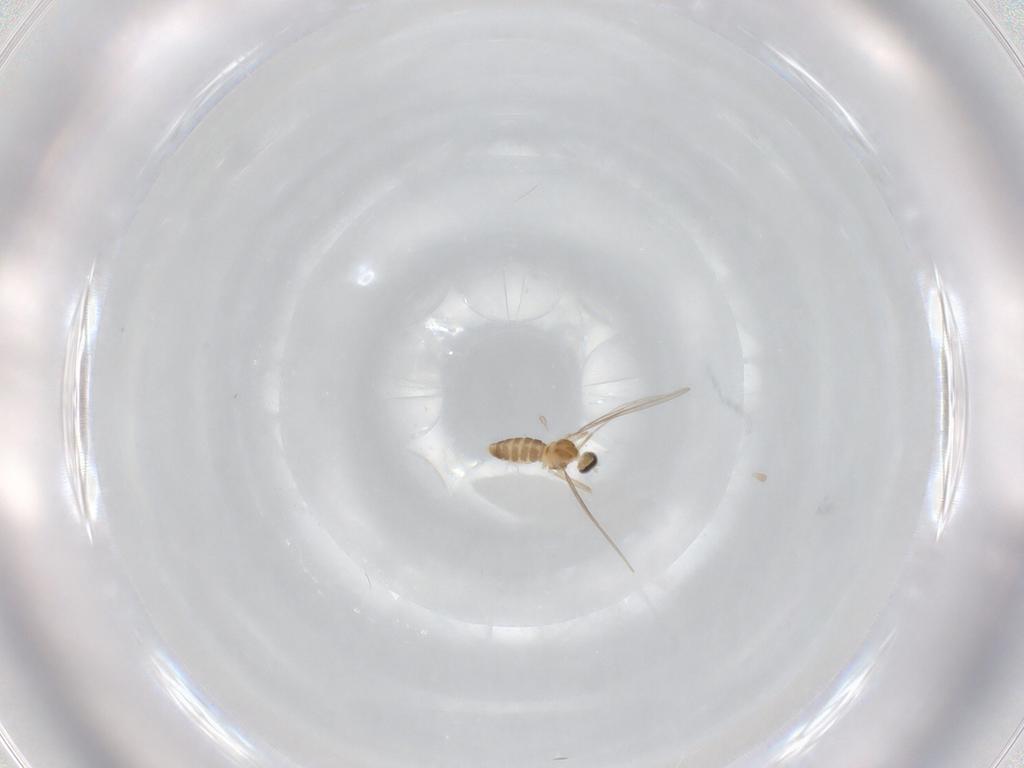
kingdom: Animalia
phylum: Arthropoda
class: Insecta
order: Diptera
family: Cecidomyiidae
